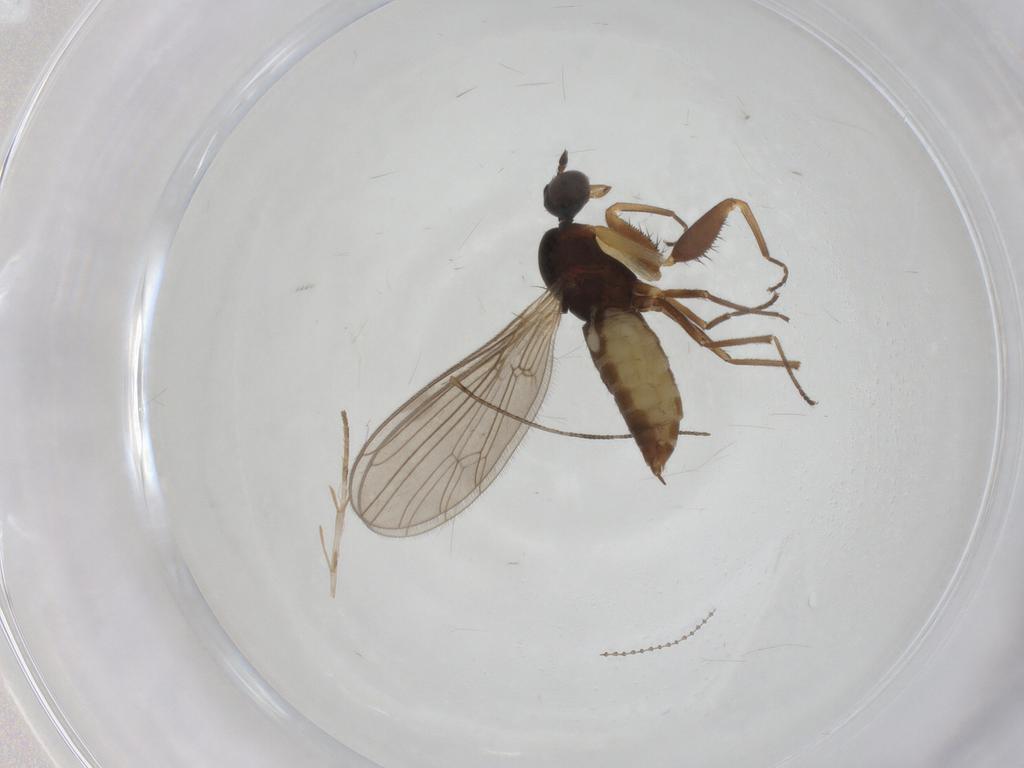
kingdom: Animalia
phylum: Arthropoda
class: Insecta
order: Diptera
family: Empididae
